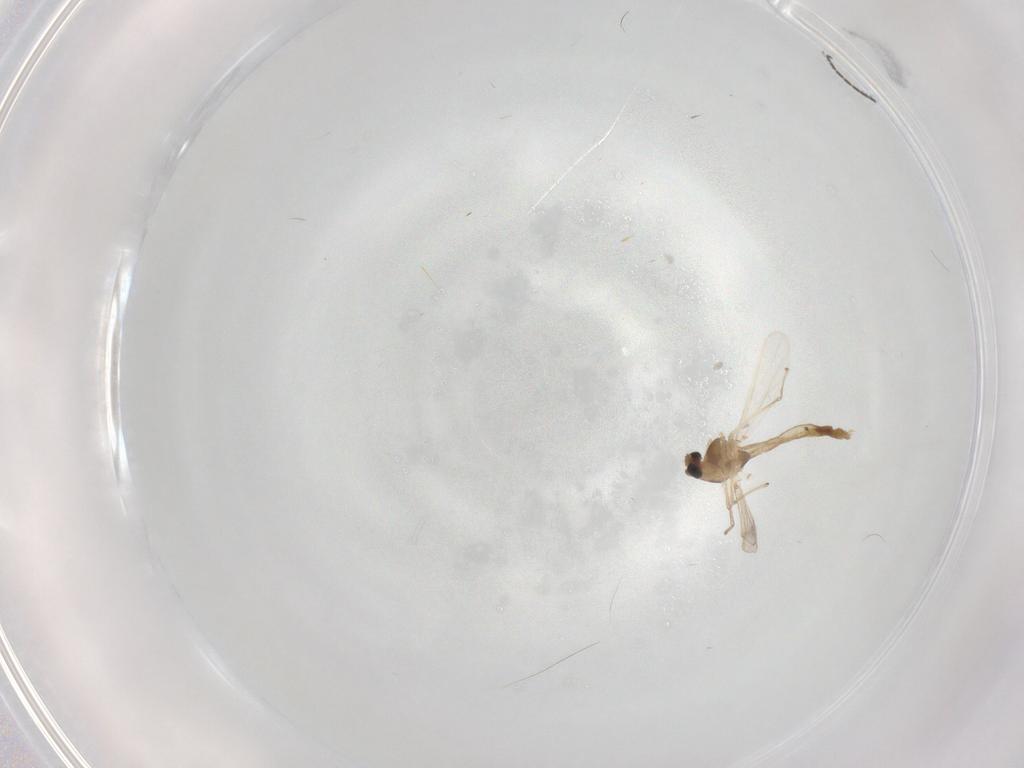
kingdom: Animalia
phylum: Arthropoda
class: Insecta
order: Diptera
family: Chironomidae
